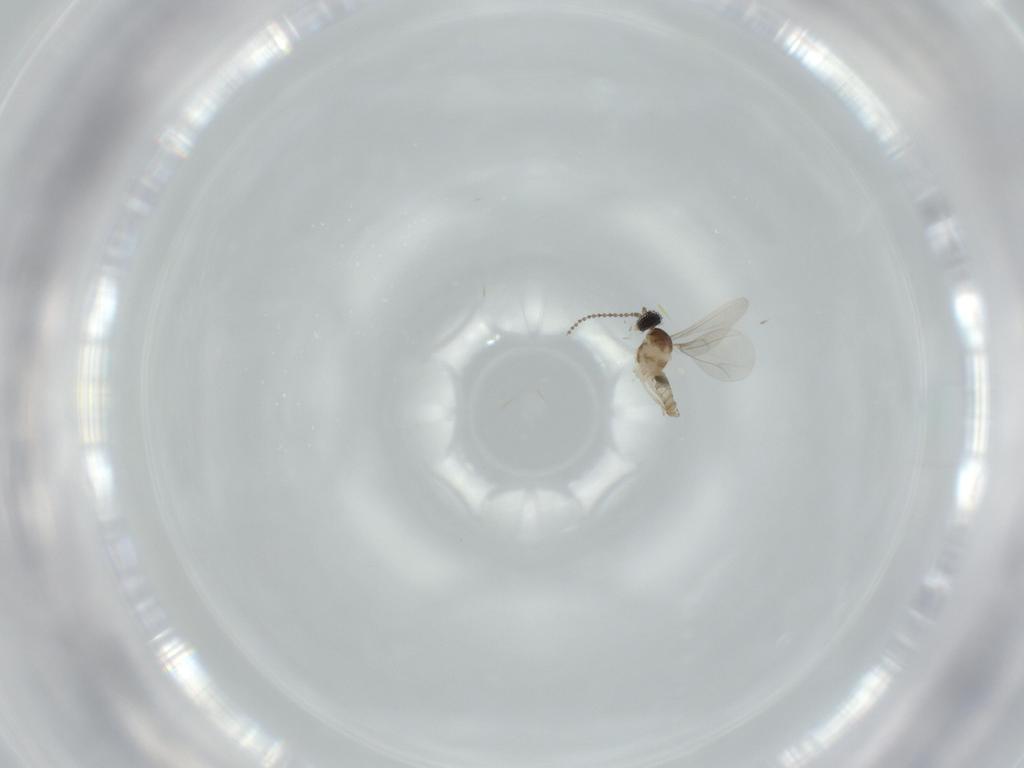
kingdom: Animalia
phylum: Arthropoda
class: Insecta
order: Diptera
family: Cecidomyiidae
